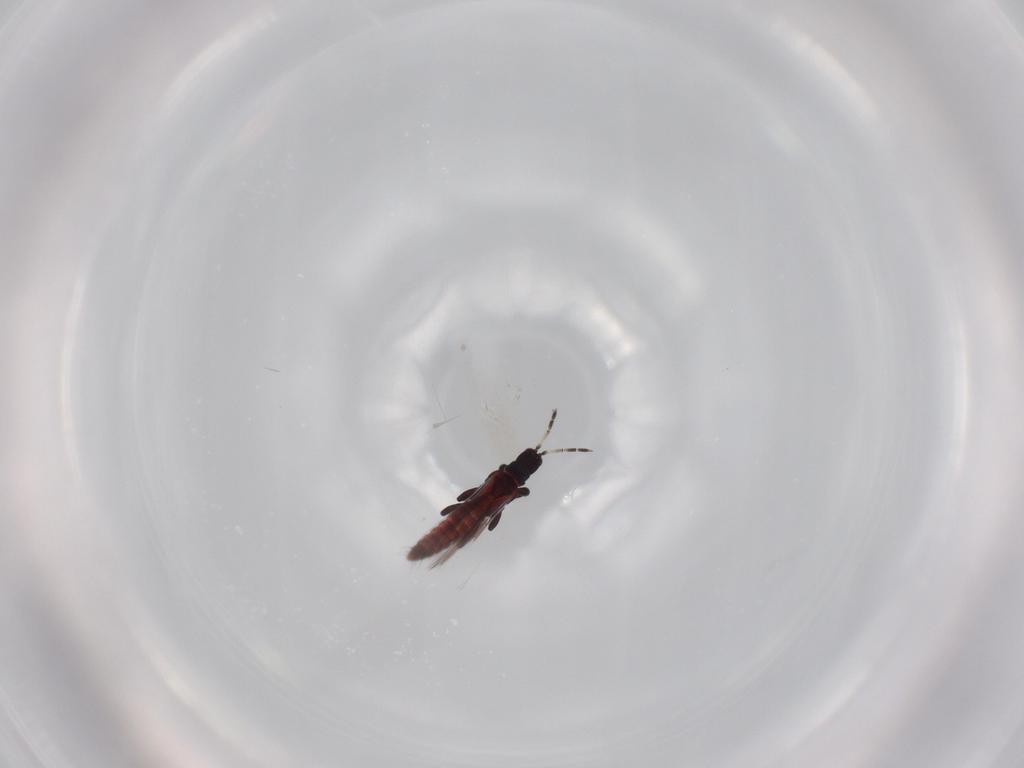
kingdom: Animalia
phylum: Arthropoda
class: Insecta
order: Thysanoptera
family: Aeolothripidae
